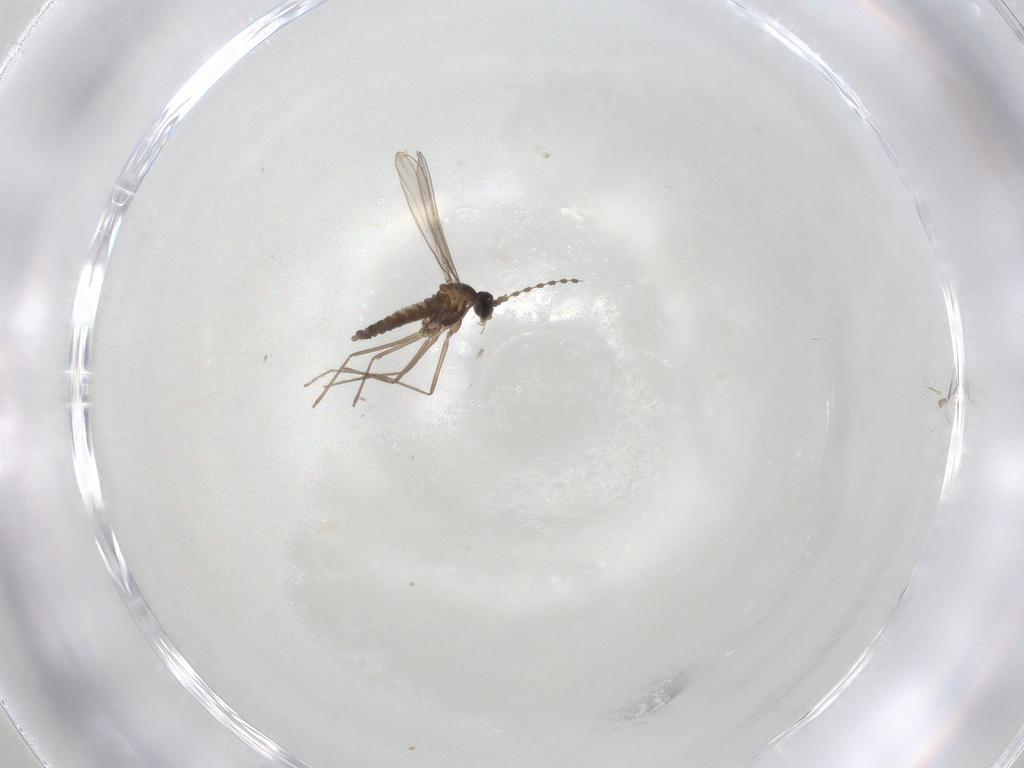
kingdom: Animalia
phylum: Arthropoda
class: Insecta
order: Diptera
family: Cecidomyiidae
